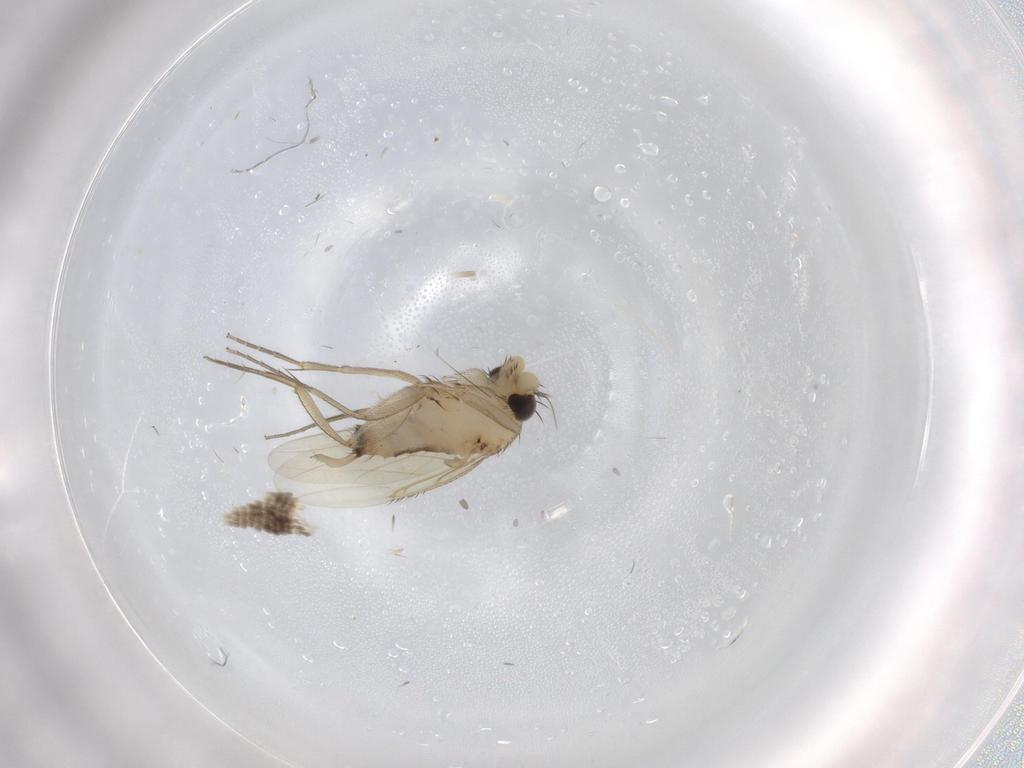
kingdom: Animalia
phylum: Arthropoda
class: Insecta
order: Diptera
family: Phoridae
